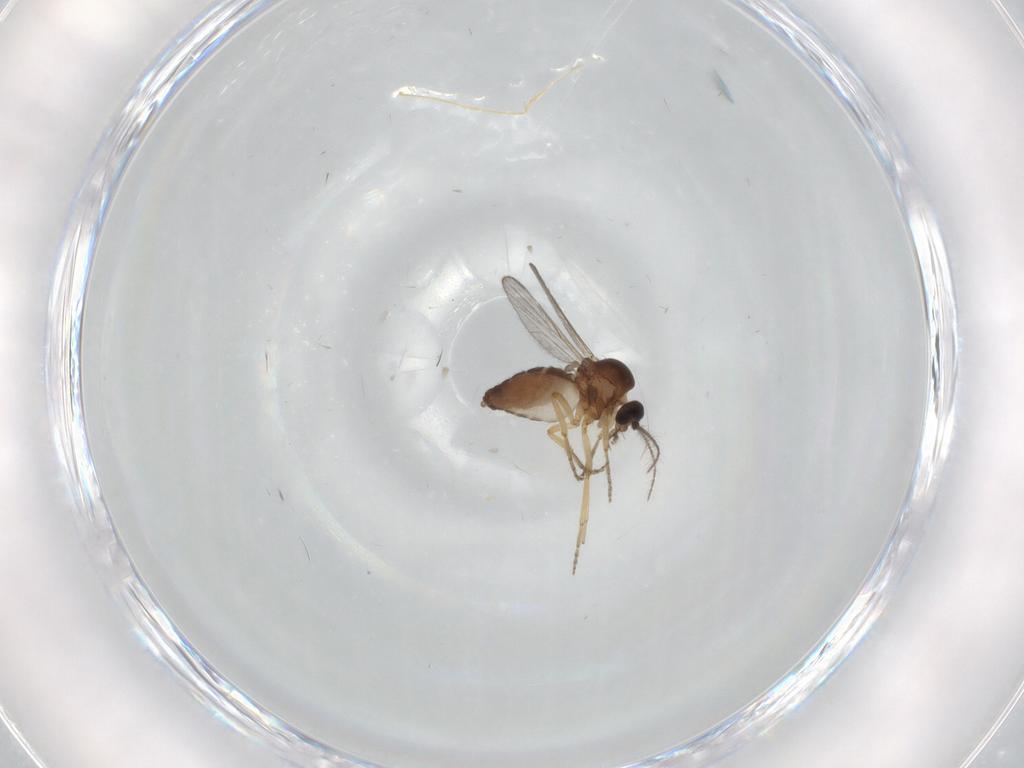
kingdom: Animalia
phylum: Arthropoda
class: Insecta
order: Diptera
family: Ceratopogonidae
